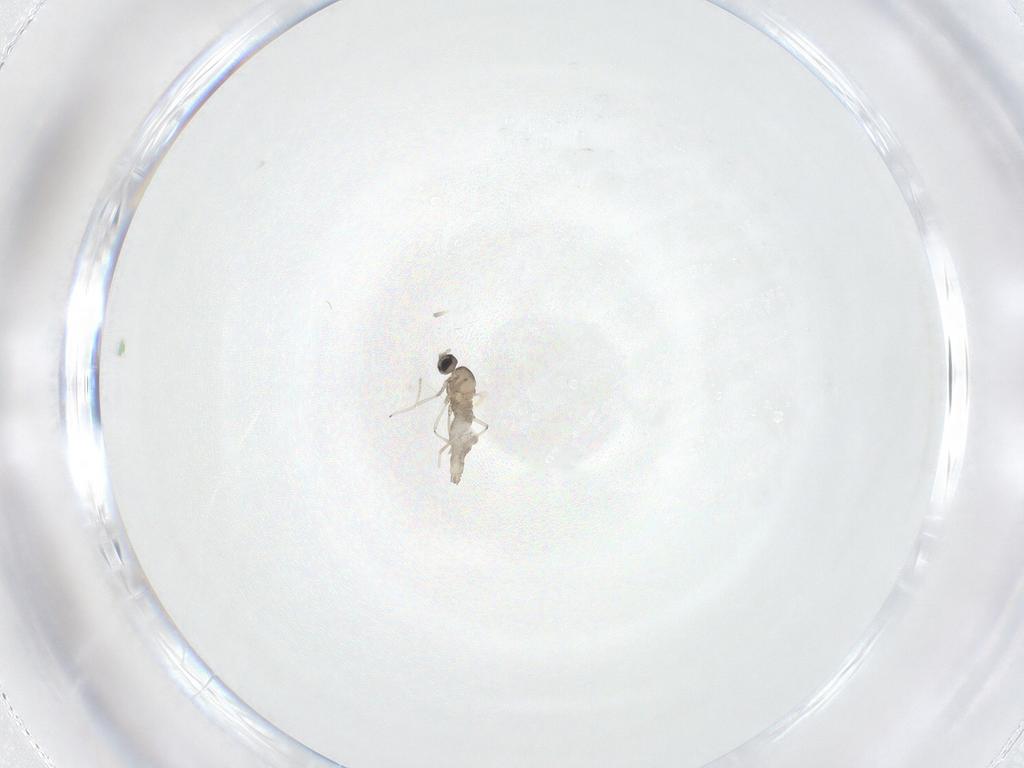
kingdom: Animalia
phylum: Arthropoda
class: Insecta
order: Diptera
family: Cecidomyiidae
